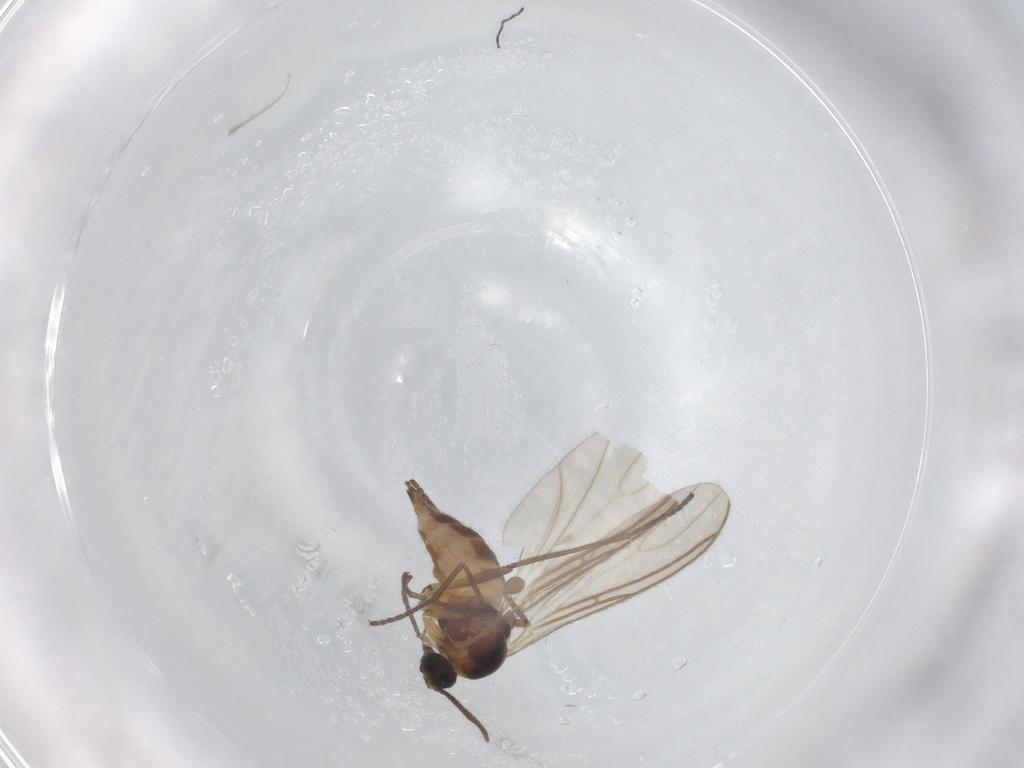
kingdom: Animalia
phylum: Arthropoda
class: Insecta
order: Diptera
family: Sciaridae
